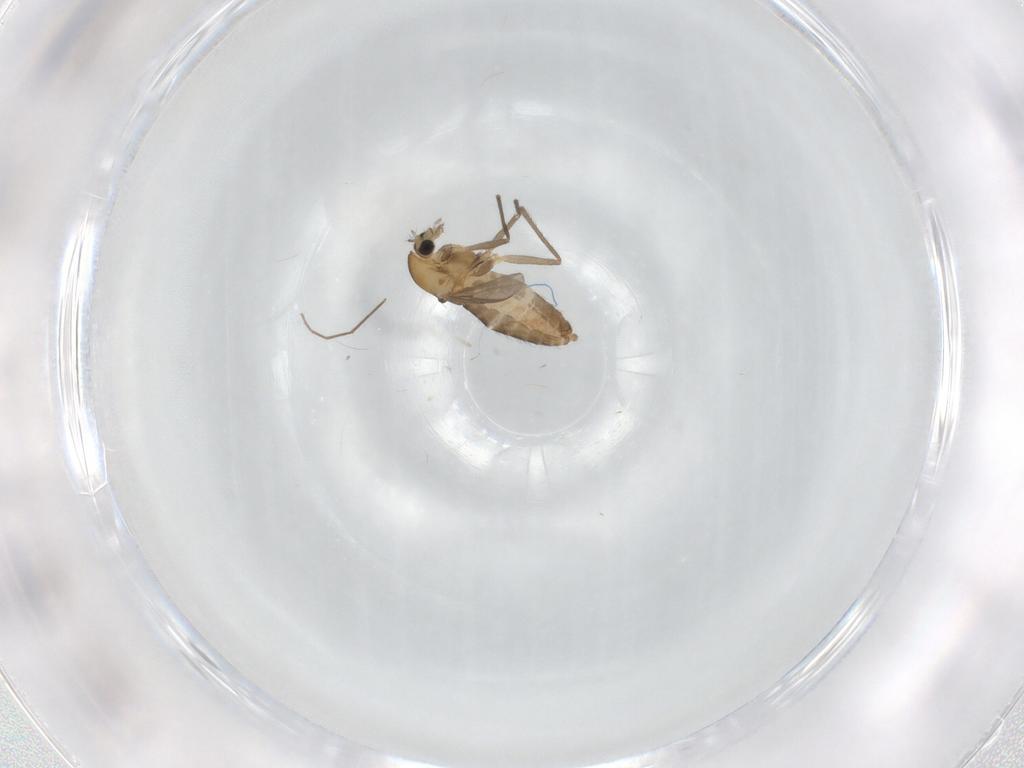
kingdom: Animalia
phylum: Arthropoda
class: Insecta
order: Diptera
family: Chironomidae
